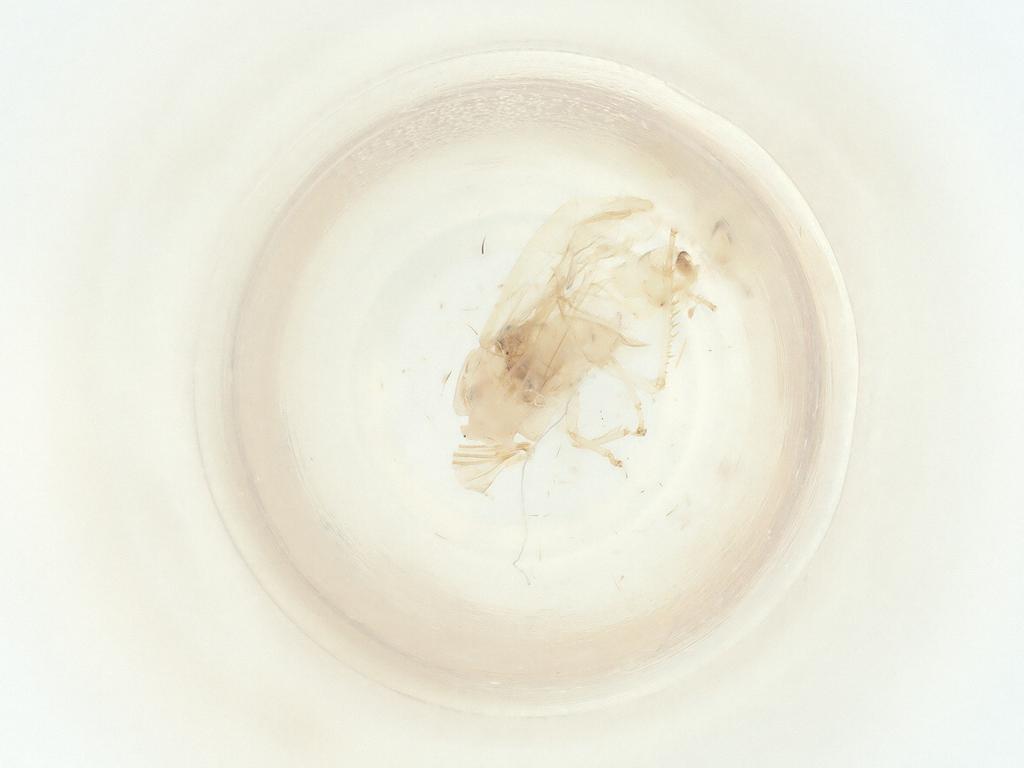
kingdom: Animalia
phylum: Arthropoda
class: Insecta
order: Hemiptera
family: Cicadellidae
